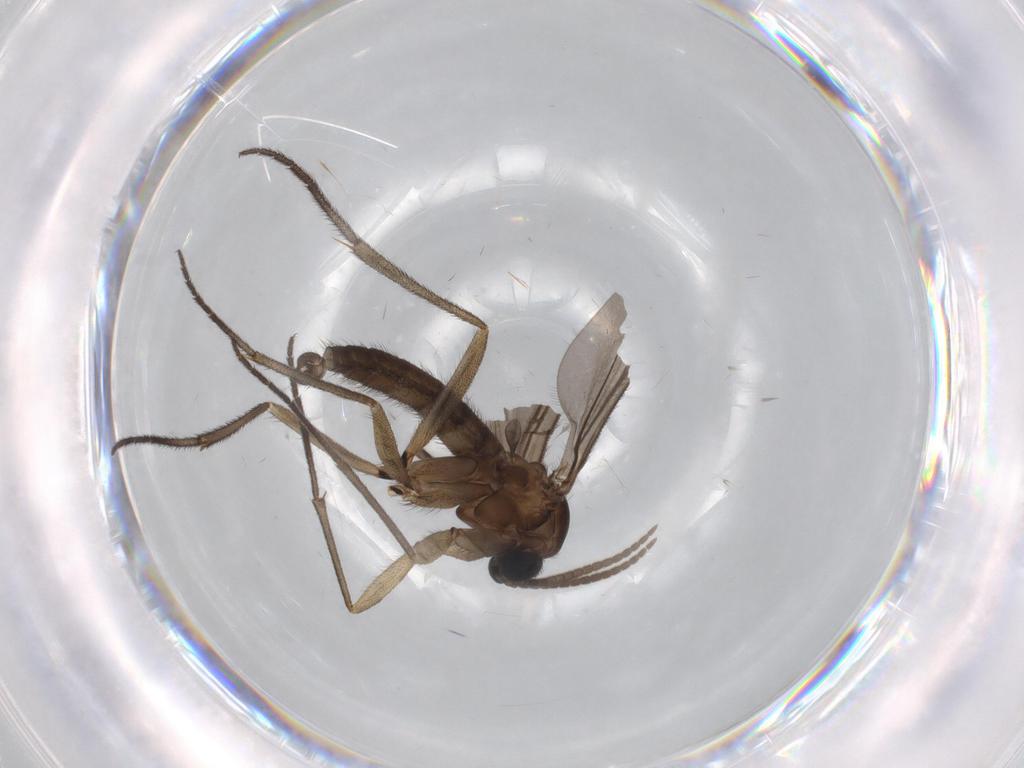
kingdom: Animalia
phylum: Arthropoda
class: Insecta
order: Diptera
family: Sciaridae
